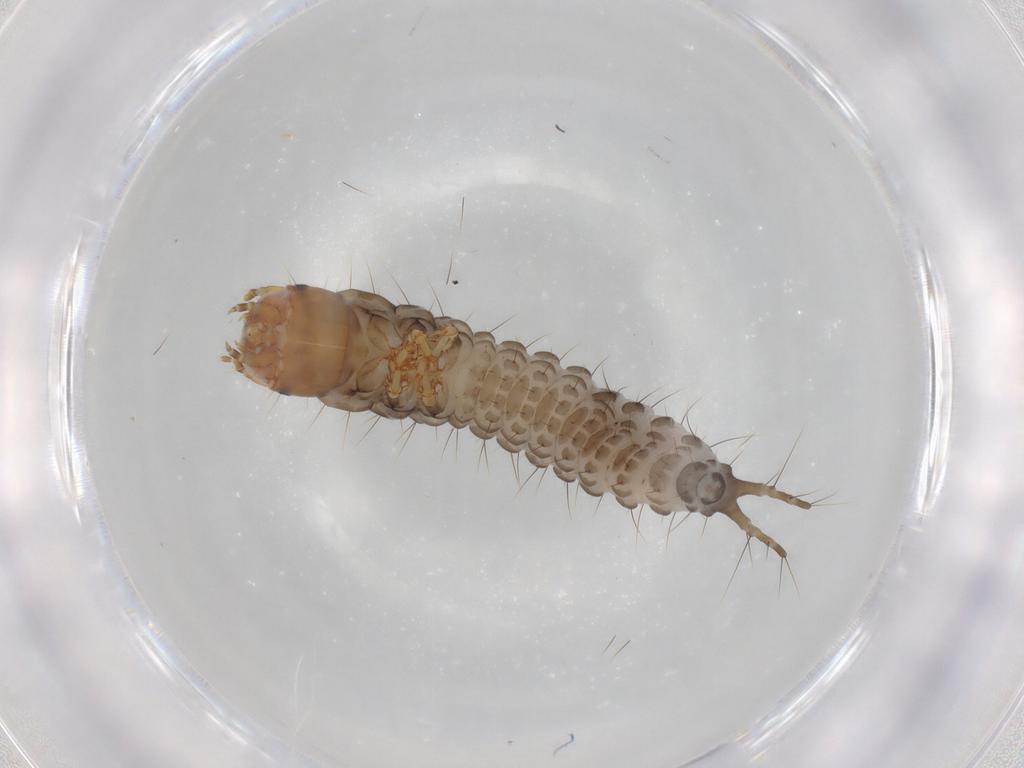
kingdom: Animalia
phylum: Arthropoda
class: Insecta
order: Coleoptera
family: Carabidae
